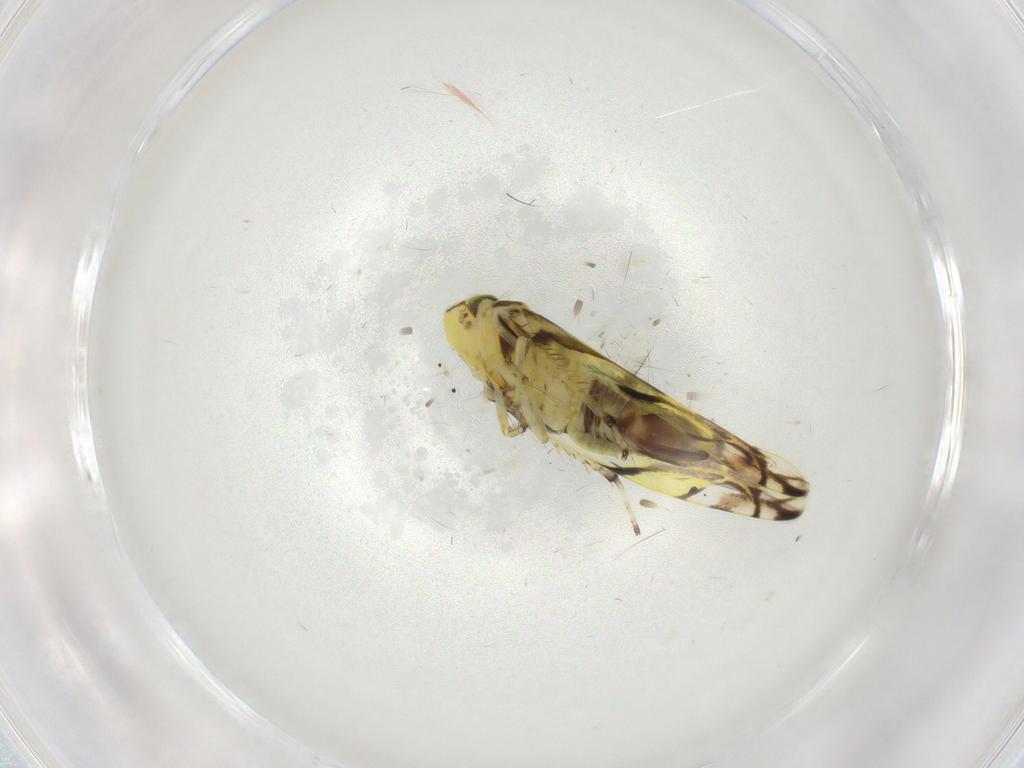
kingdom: Animalia
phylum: Arthropoda
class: Insecta
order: Hemiptera
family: Cicadellidae
